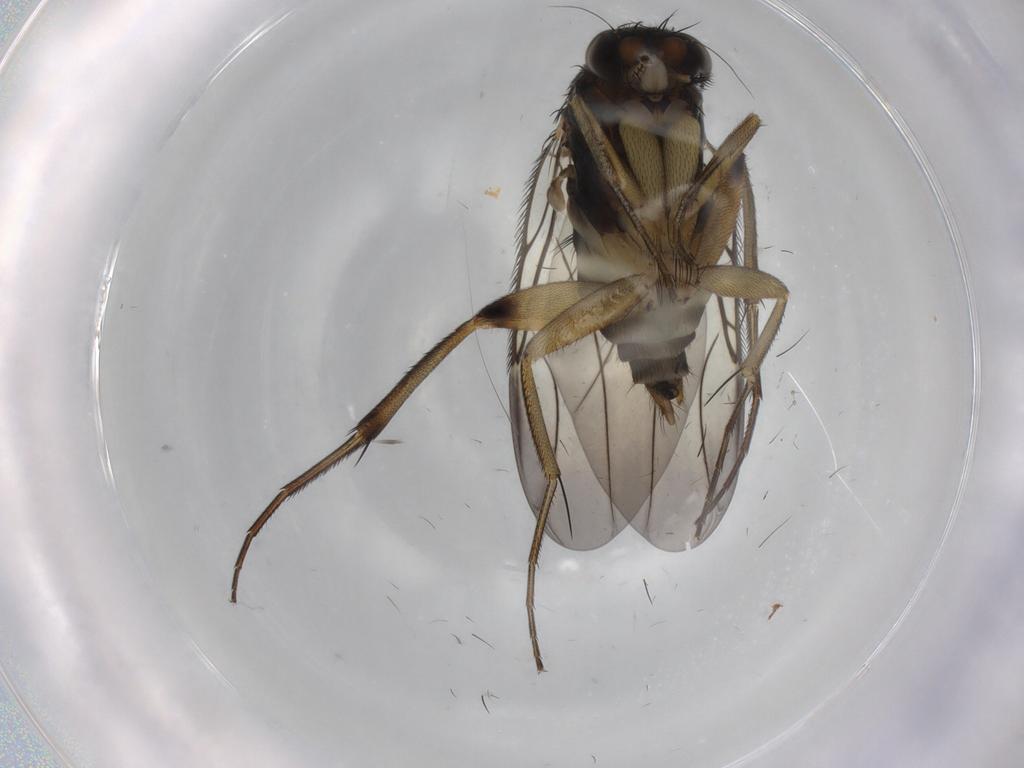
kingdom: Animalia
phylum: Arthropoda
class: Insecta
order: Diptera
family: Phoridae
